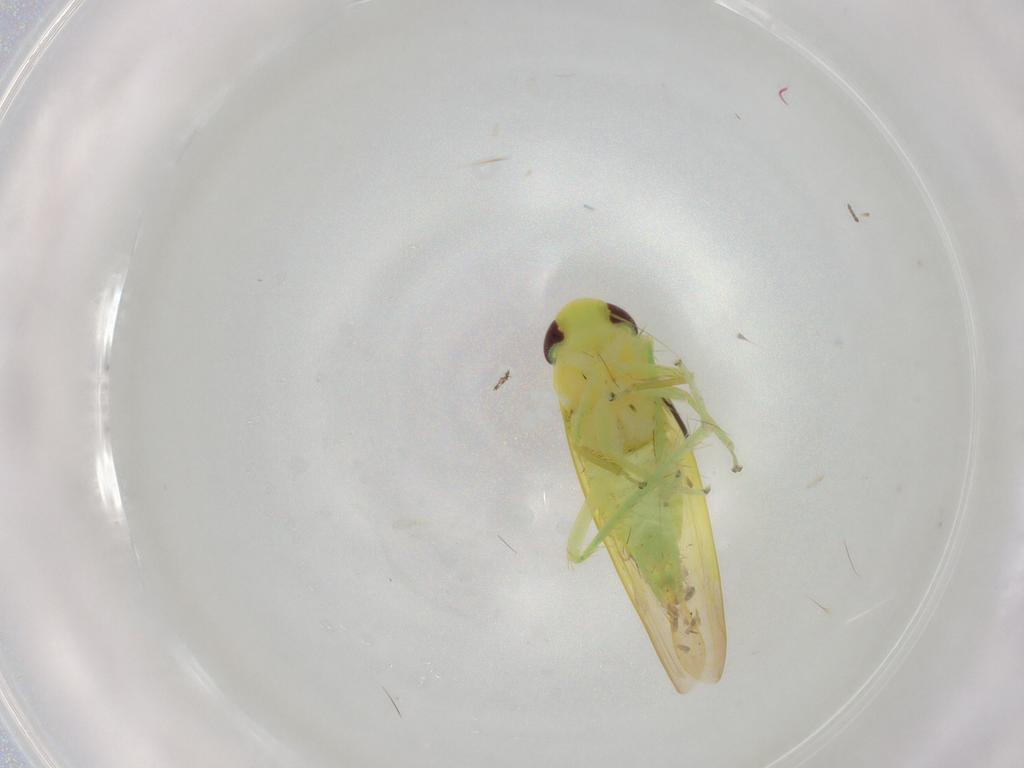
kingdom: Animalia
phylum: Arthropoda
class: Insecta
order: Hemiptera
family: Cicadellidae
